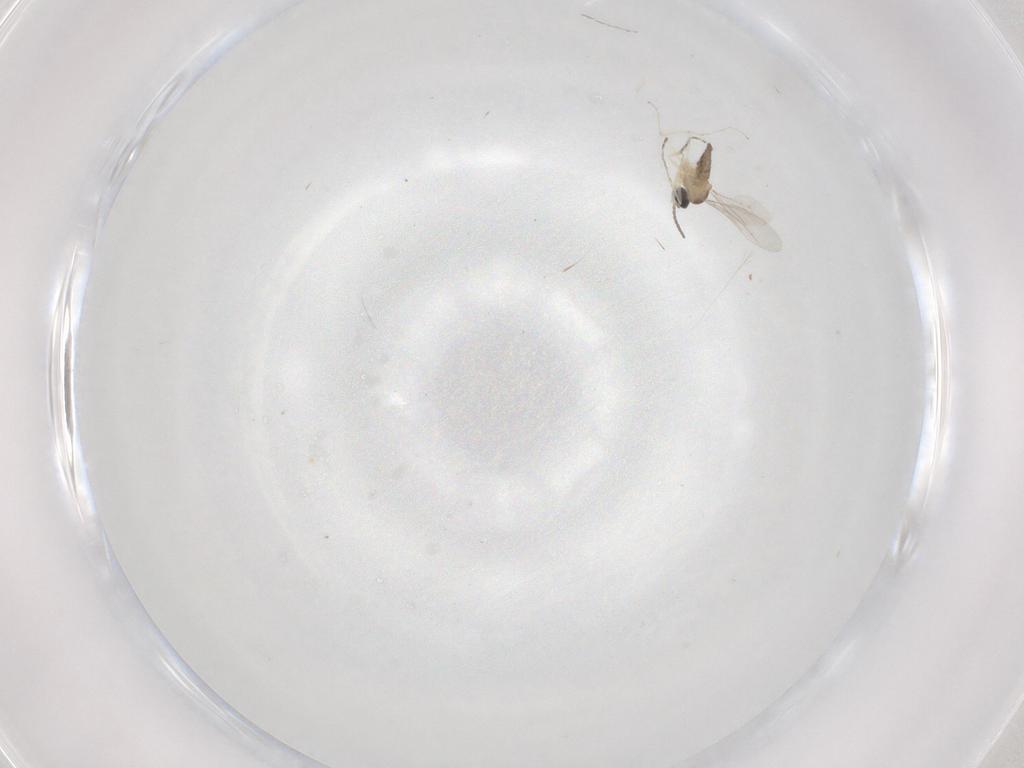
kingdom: Animalia
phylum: Arthropoda
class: Insecta
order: Diptera
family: Cecidomyiidae
